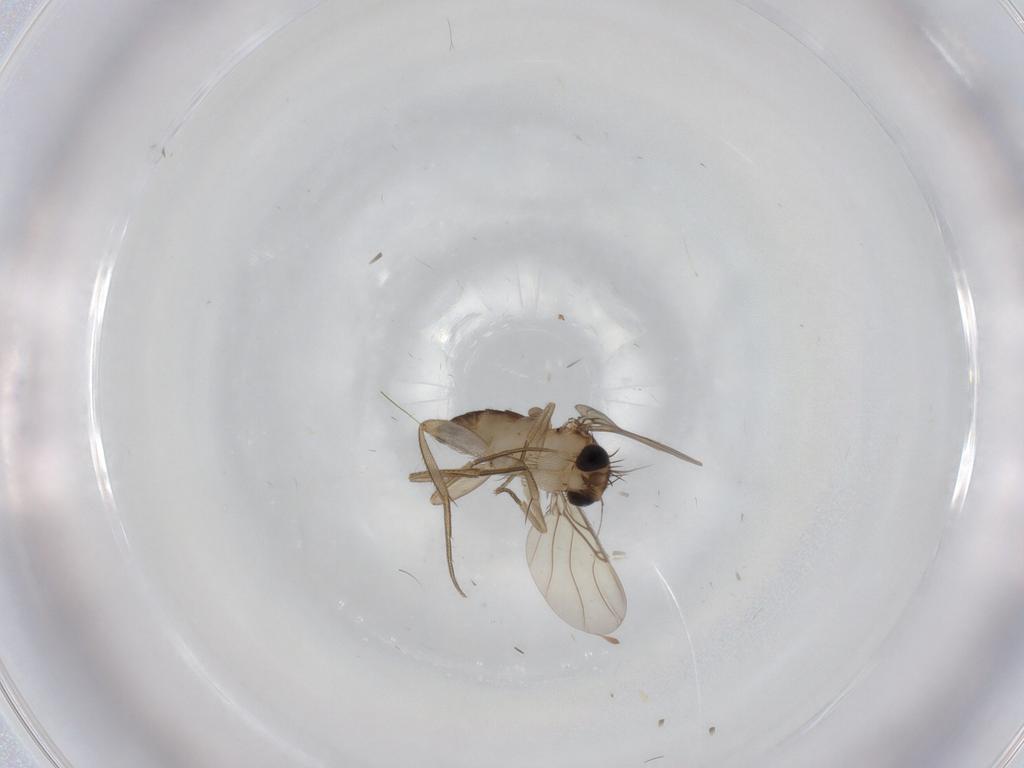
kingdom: Animalia
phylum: Arthropoda
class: Insecta
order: Diptera
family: Phoridae
